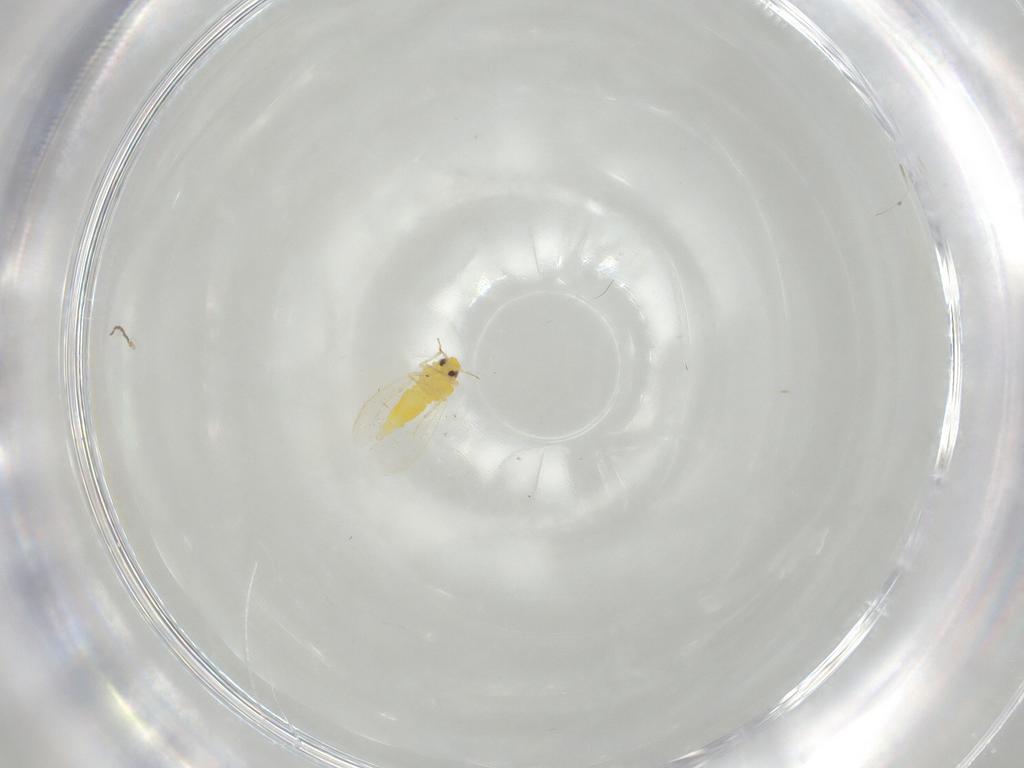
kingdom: Animalia
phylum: Arthropoda
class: Insecta
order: Hemiptera
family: Aleyrodidae
